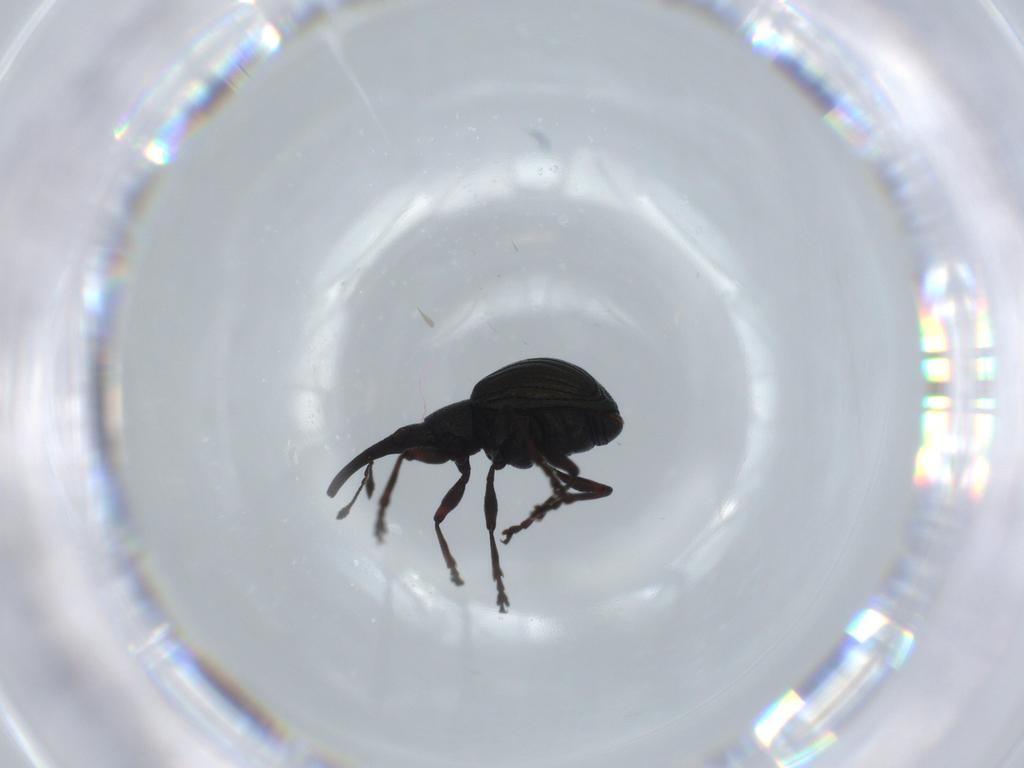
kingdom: Animalia
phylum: Arthropoda
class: Insecta
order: Coleoptera
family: Brentidae
